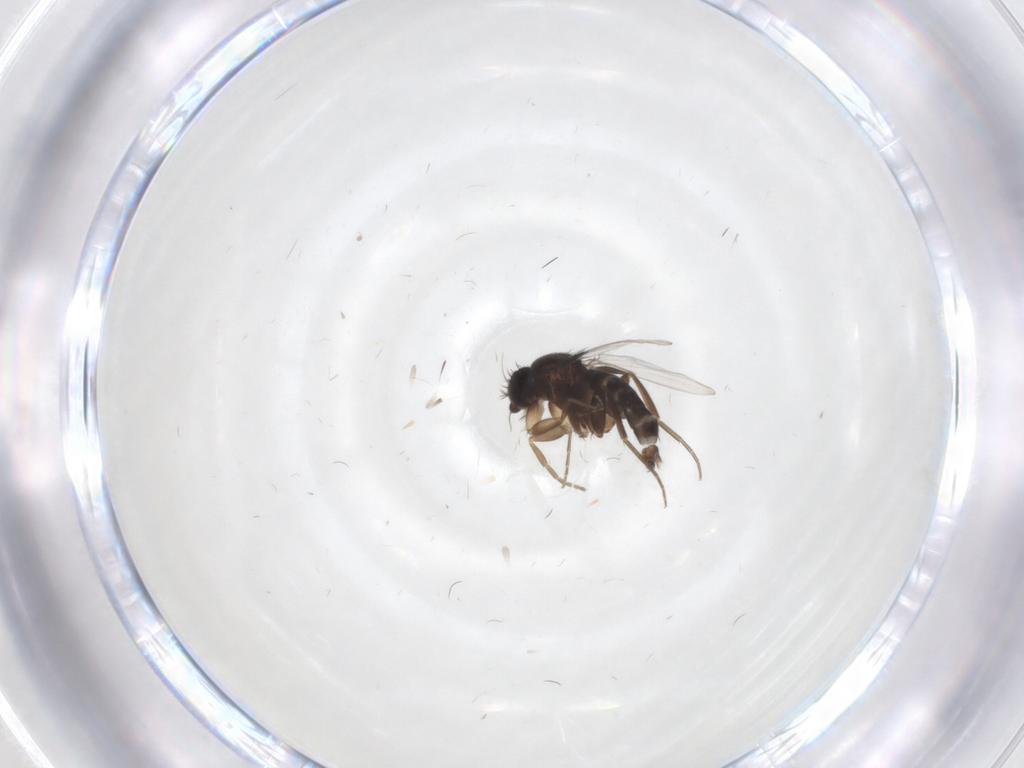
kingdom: Animalia
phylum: Arthropoda
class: Insecta
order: Diptera
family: Phoridae
